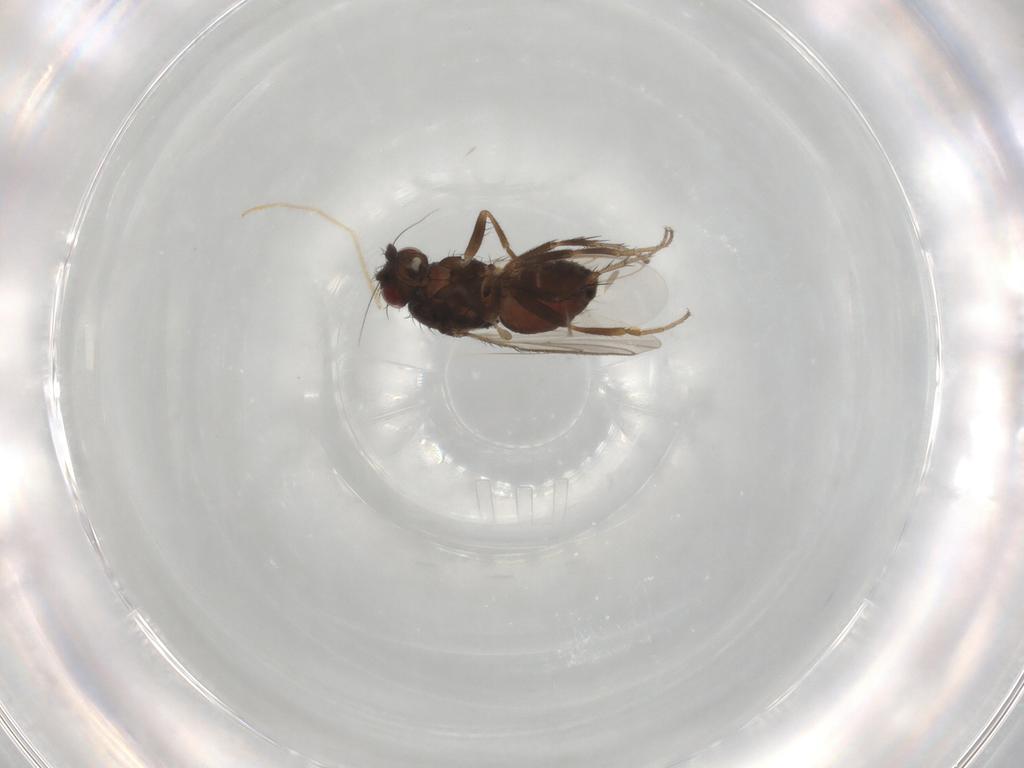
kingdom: Animalia
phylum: Arthropoda
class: Insecta
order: Diptera
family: Sphaeroceridae
